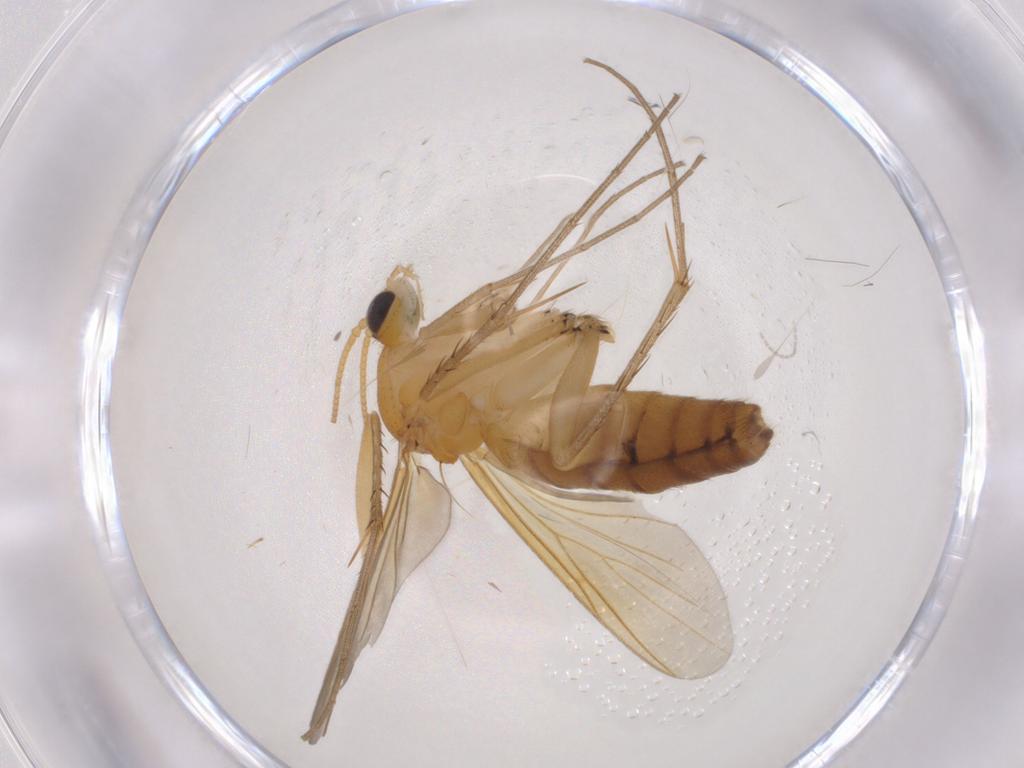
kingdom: Animalia
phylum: Arthropoda
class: Insecta
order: Diptera
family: Mycetophilidae
